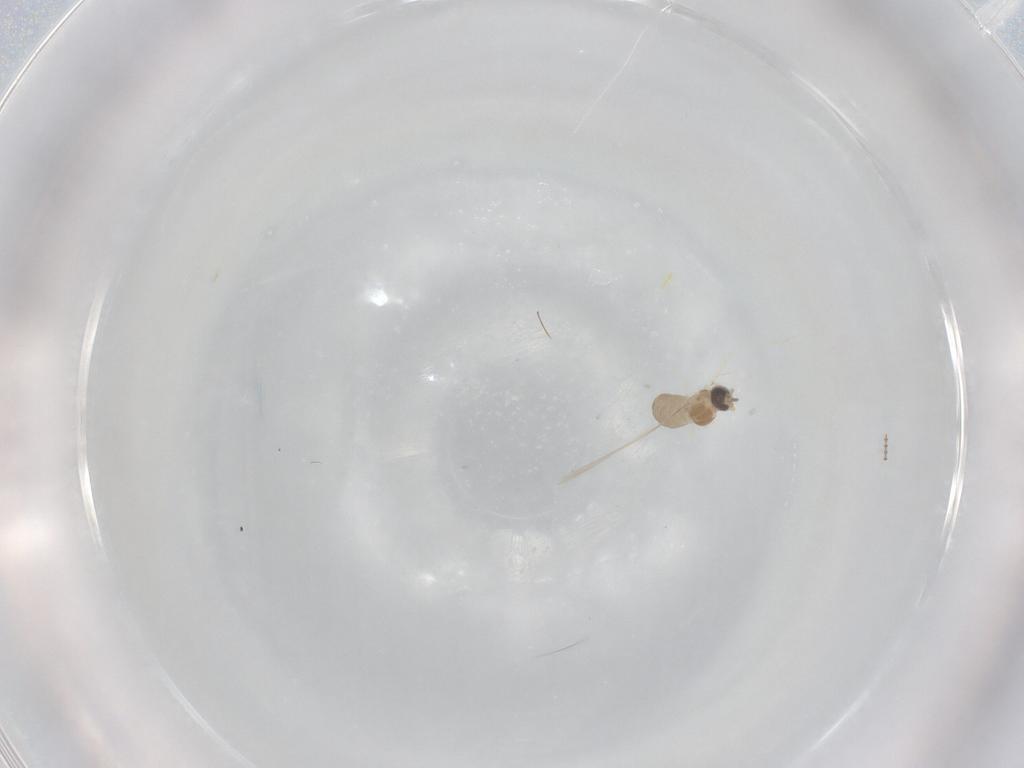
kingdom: Animalia
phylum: Arthropoda
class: Insecta
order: Diptera
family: Cecidomyiidae
